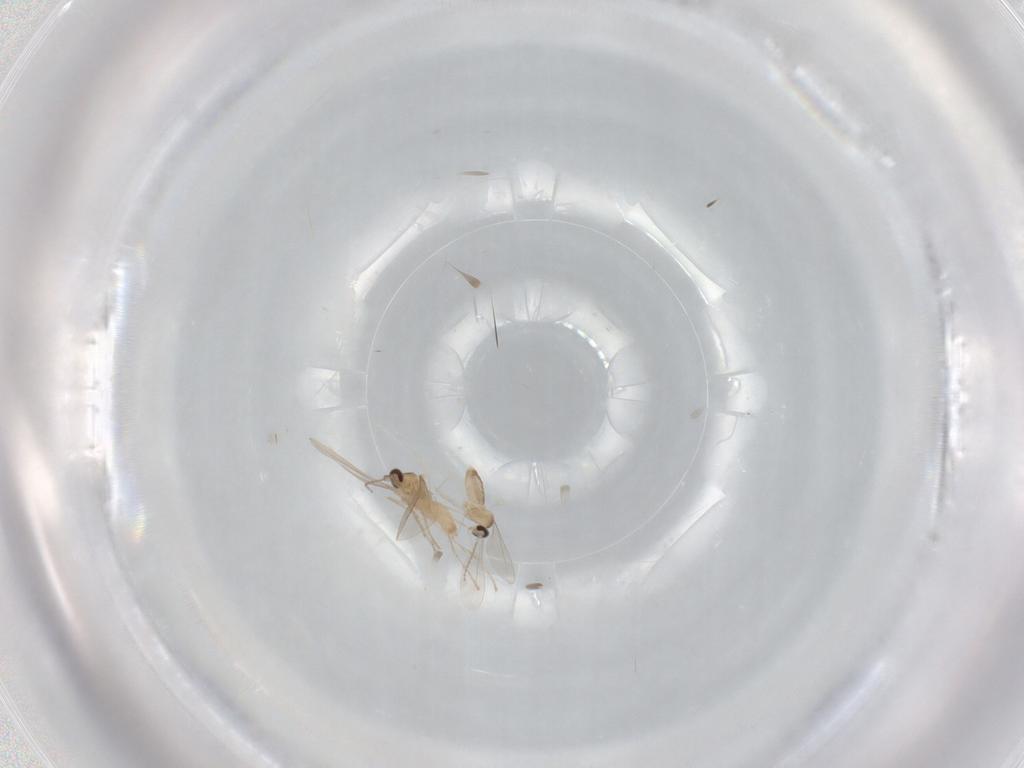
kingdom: Animalia
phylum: Arthropoda
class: Insecta
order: Diptera
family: Cecidomyiidae
